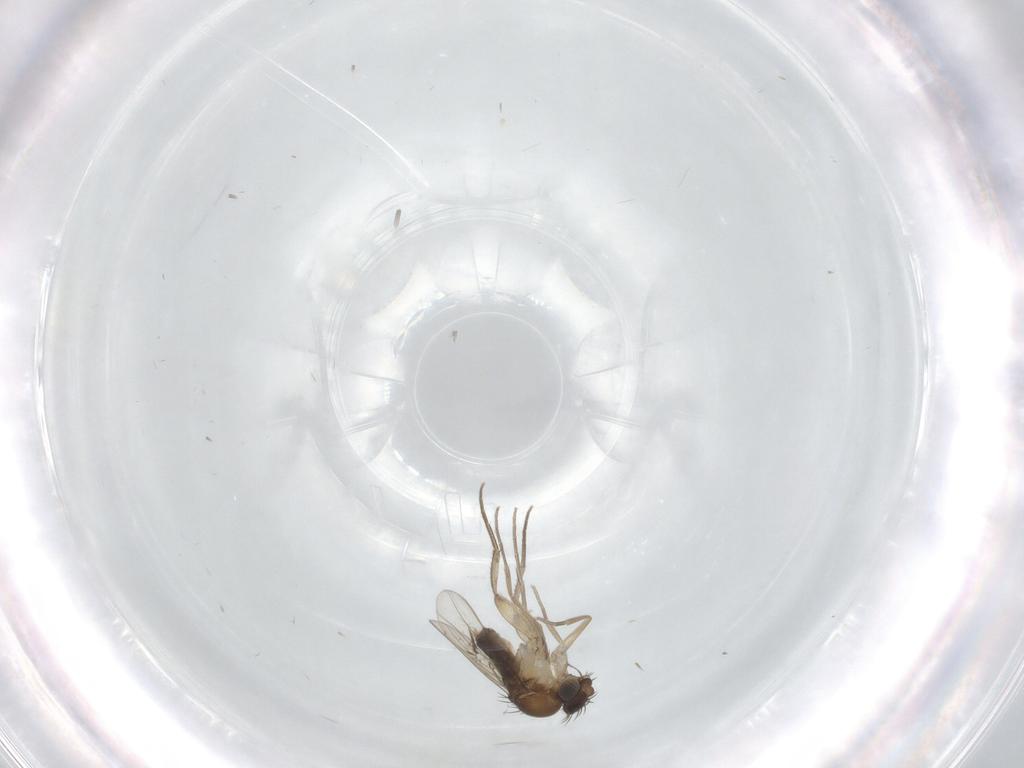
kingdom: Animalia
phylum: Arthropoda
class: Insecta
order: Diptera
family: Phoridae
